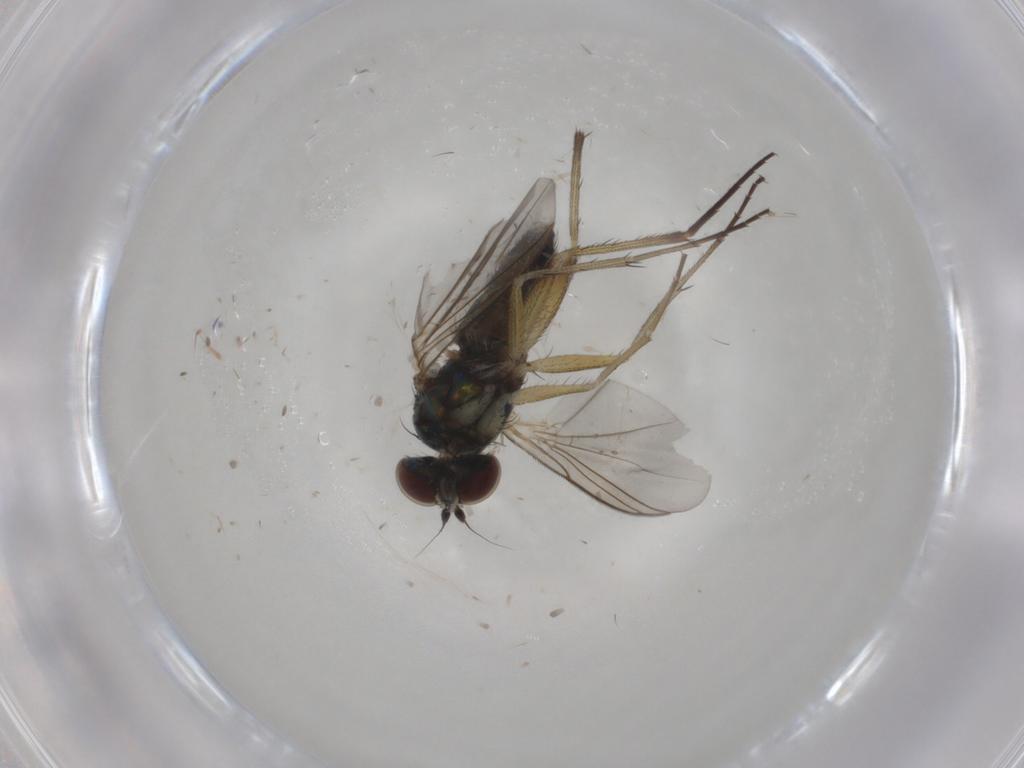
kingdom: Animalia
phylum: Arthropoda
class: Insecta
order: Diptera
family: Dolichopodidae
